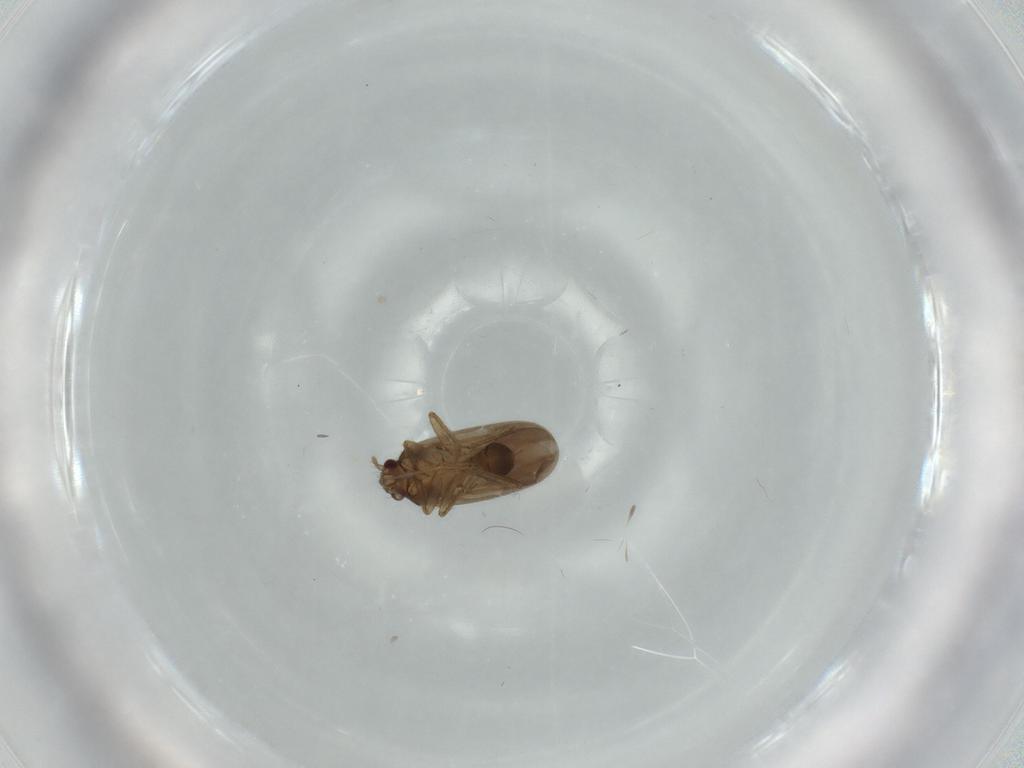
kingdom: Animalia
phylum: Arthropoda
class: Insecta
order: Hemiptera
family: Ceratocombidae
